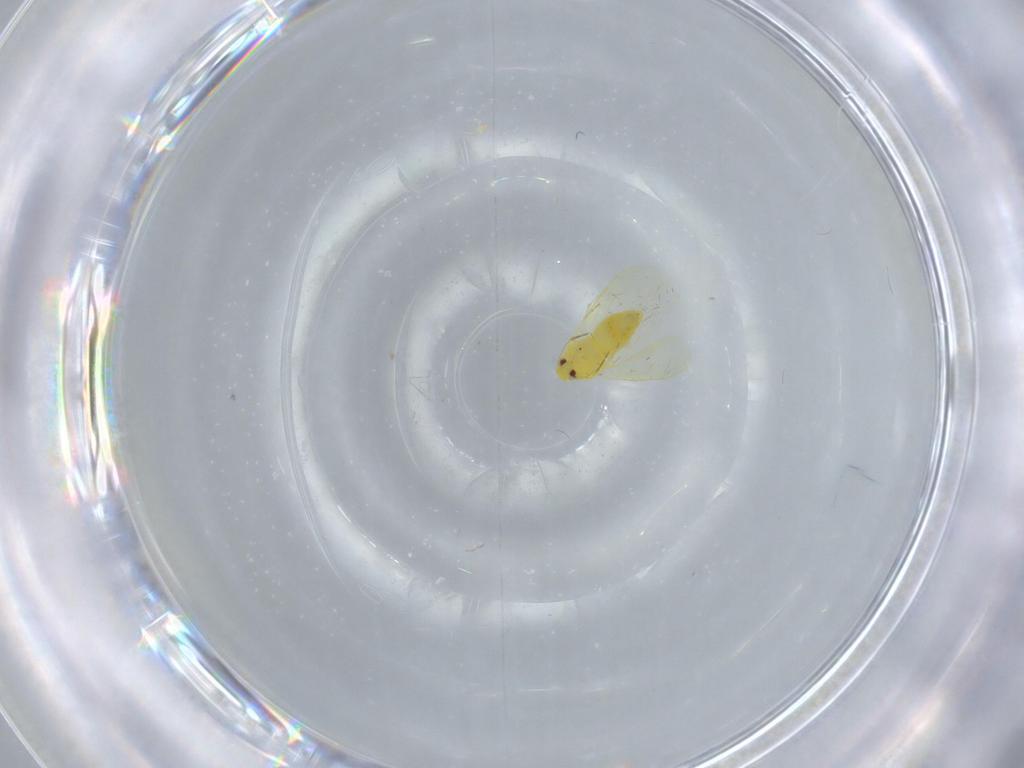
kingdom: Animalia
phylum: Arthropoda
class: Insecta
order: Hemiptera
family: Aleyrodidae
